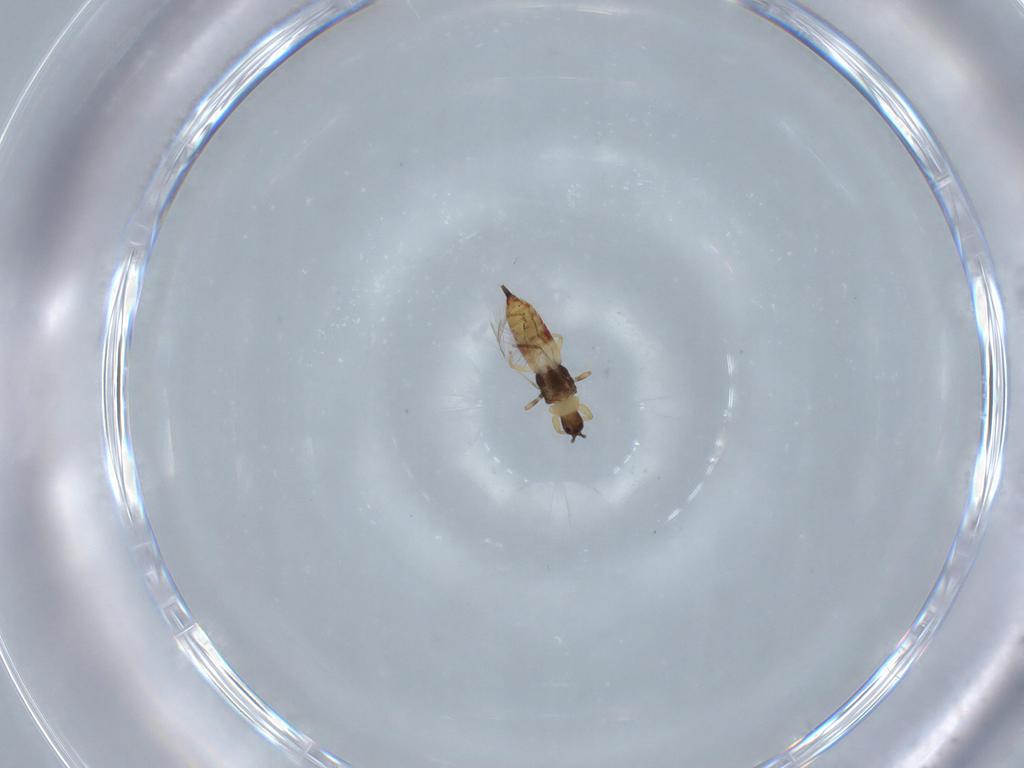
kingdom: Animalia
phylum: Arthropoda
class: Insecta
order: Thysanoptera
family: Phlaeothripidae
